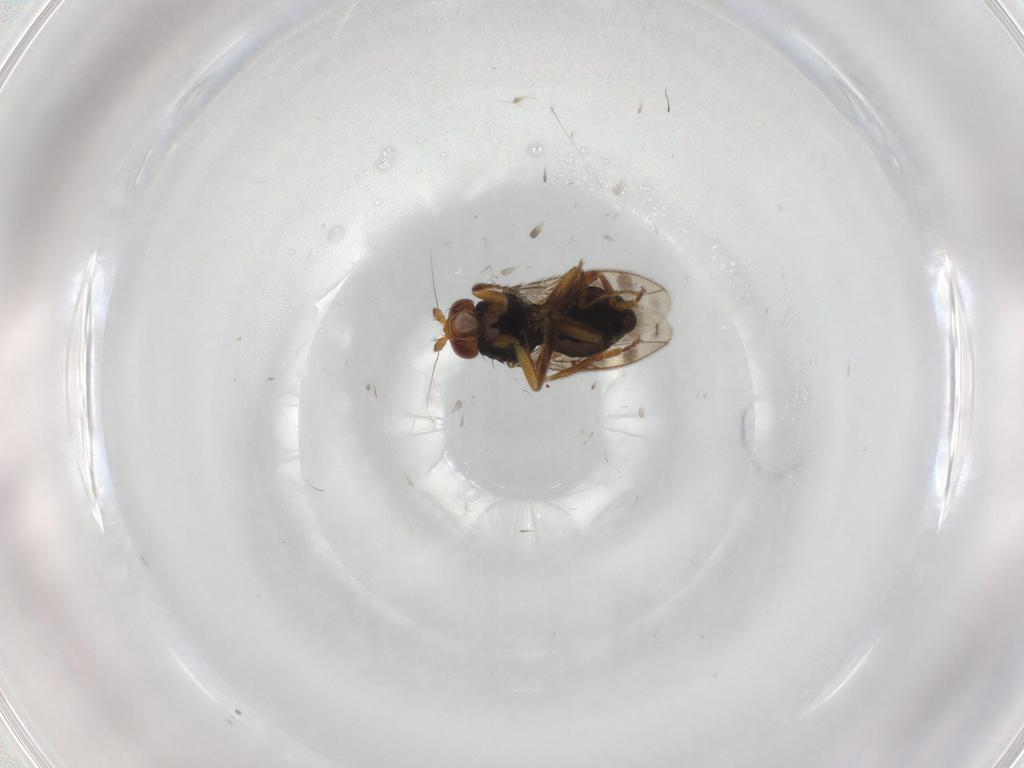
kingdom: Animalia
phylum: Arthropoda
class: Insecta
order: Diptera
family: Sphaeroceridae
